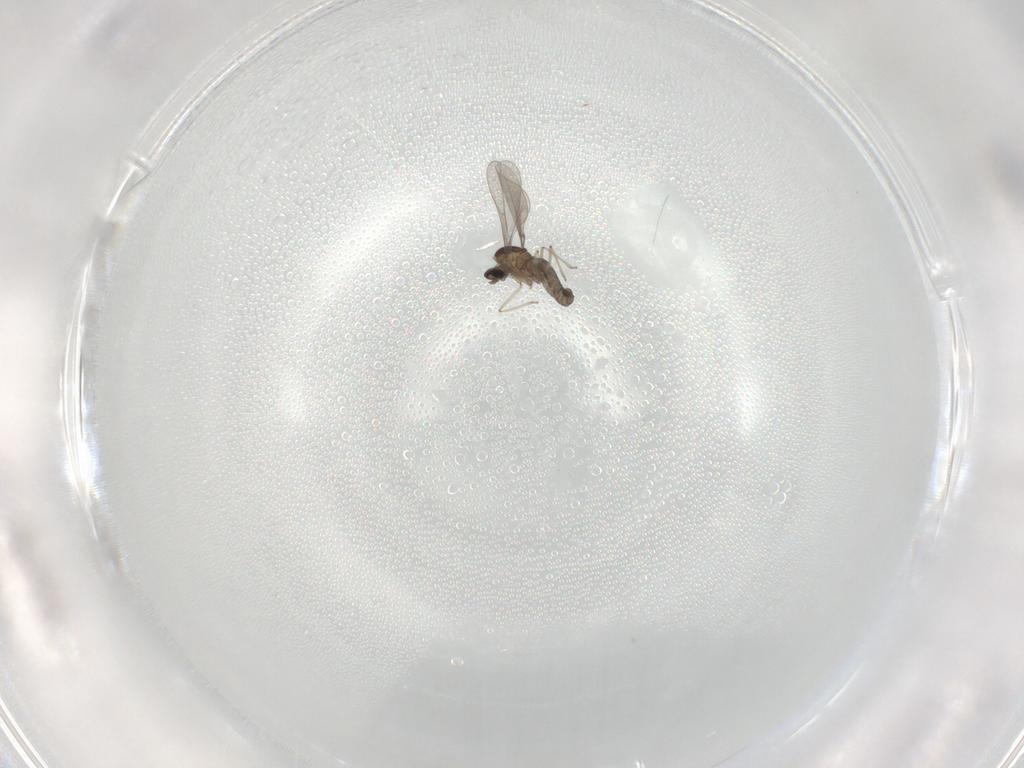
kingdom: Animalia
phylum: Arthropoda
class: Insecta
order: Diptera
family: Cecidomyiidae
